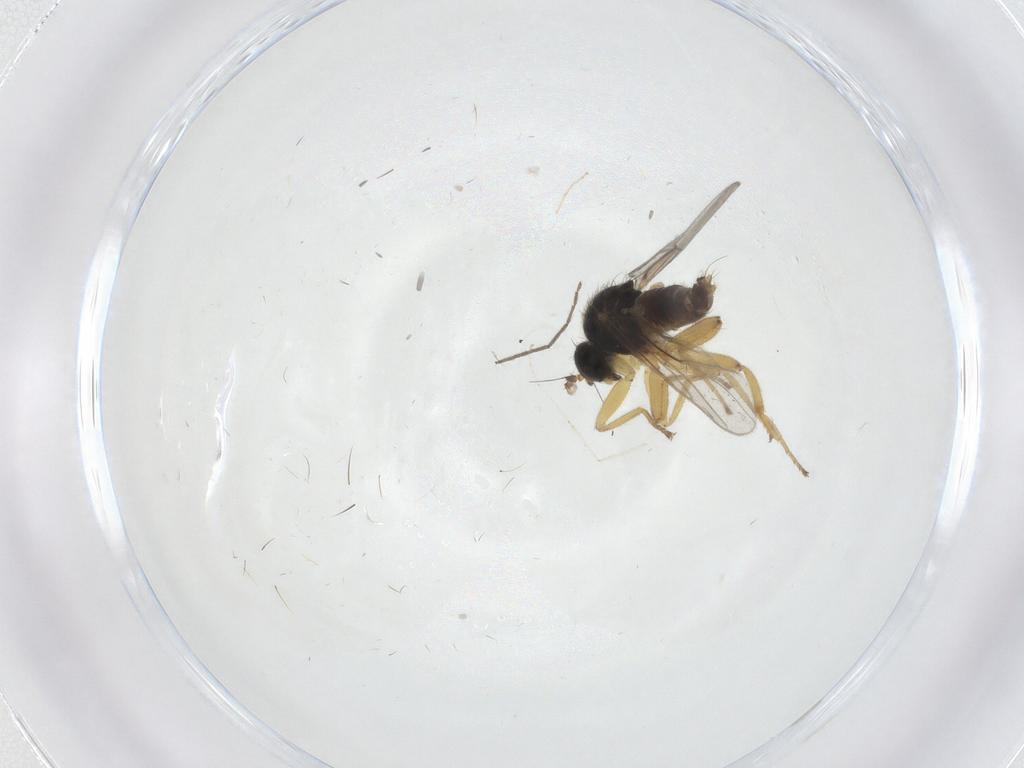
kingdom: Animalia
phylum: Arthropoda
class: Insecta
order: Diptera
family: Hybotidae
